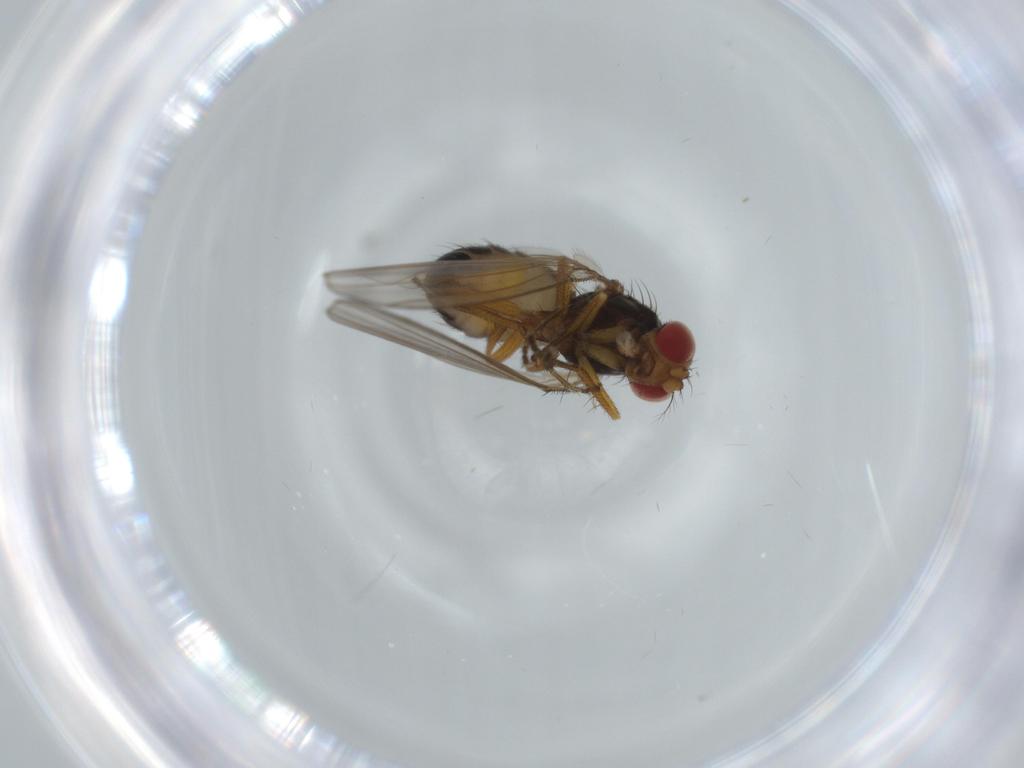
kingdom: Animalia
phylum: Arthropoda
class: Insecta
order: Diptera
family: Drosophilidae
